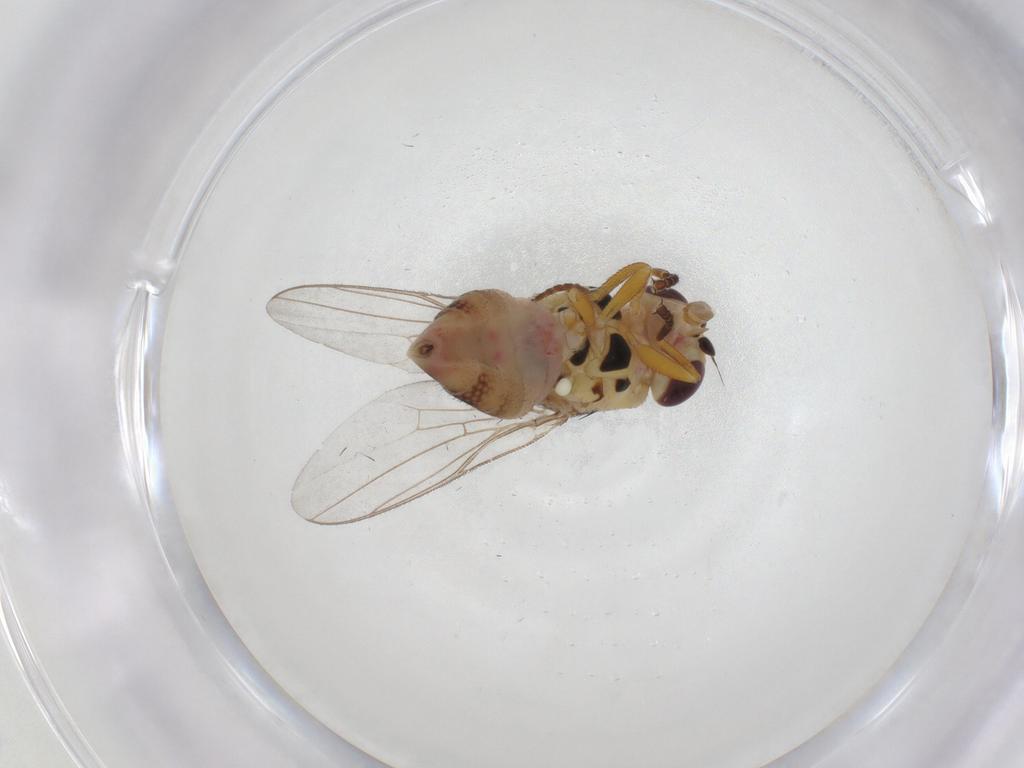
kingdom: Animalia
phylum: Arthropoda
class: Insecta
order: Diptera
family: Chloropidae
